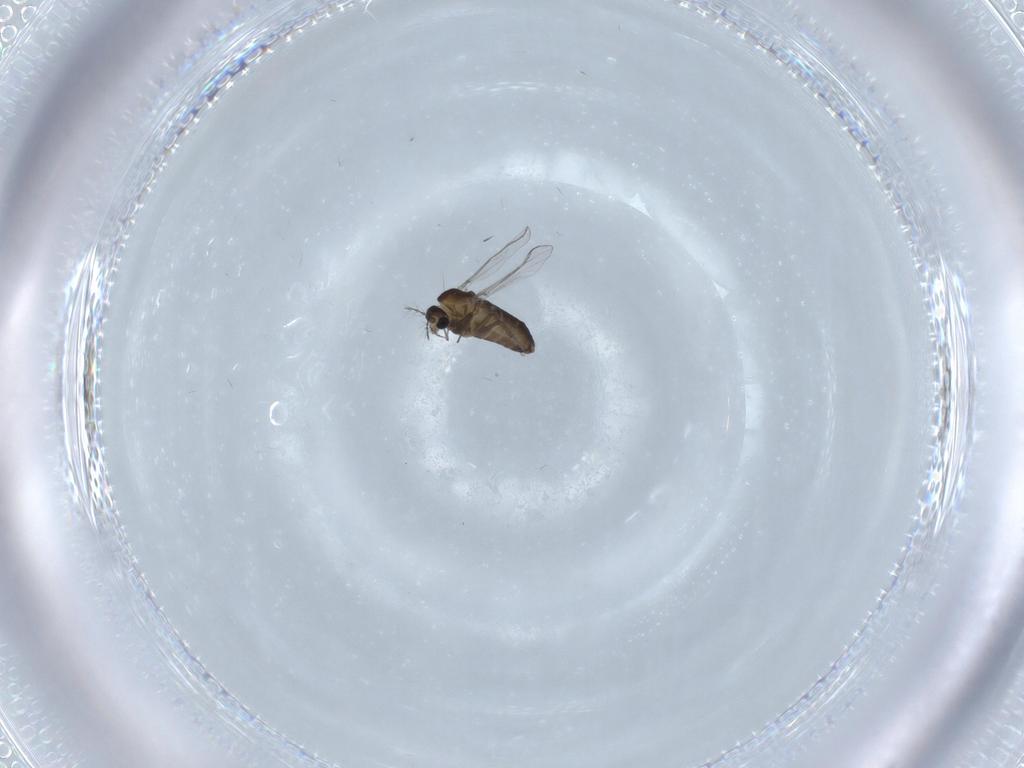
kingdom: Animalia
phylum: Arthropoda
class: Insecta
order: Diptera
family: Chironomidae
